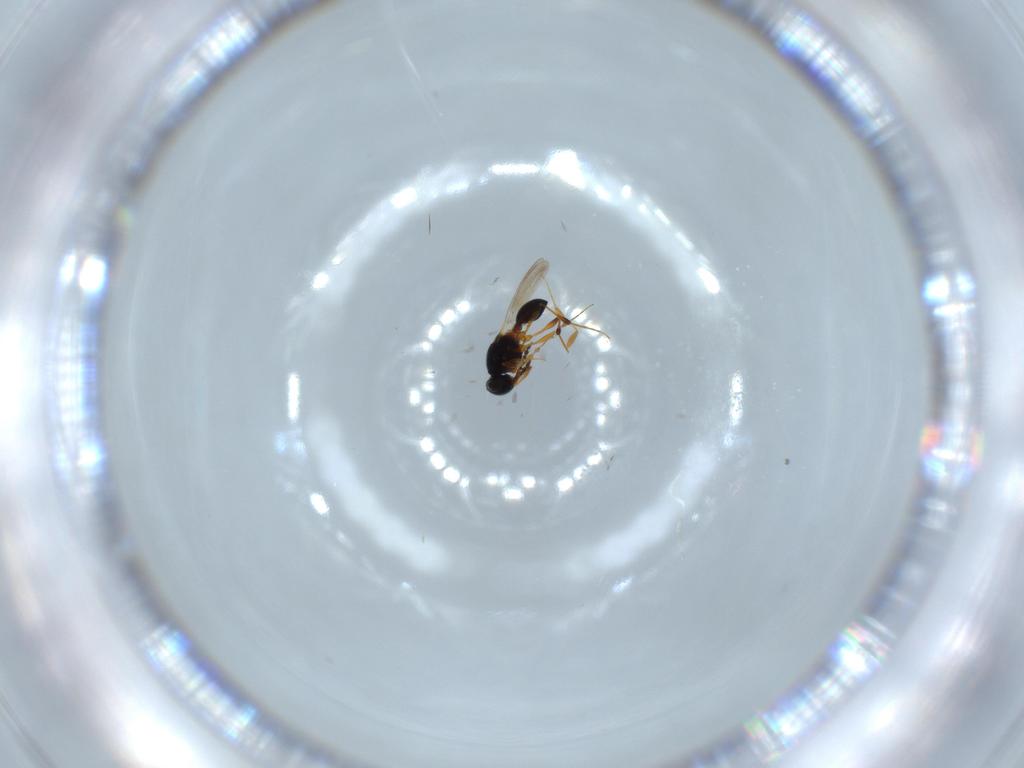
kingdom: Animalia
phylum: Arthropoda
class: Insecta
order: Hymenoptera
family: Platygastridae
